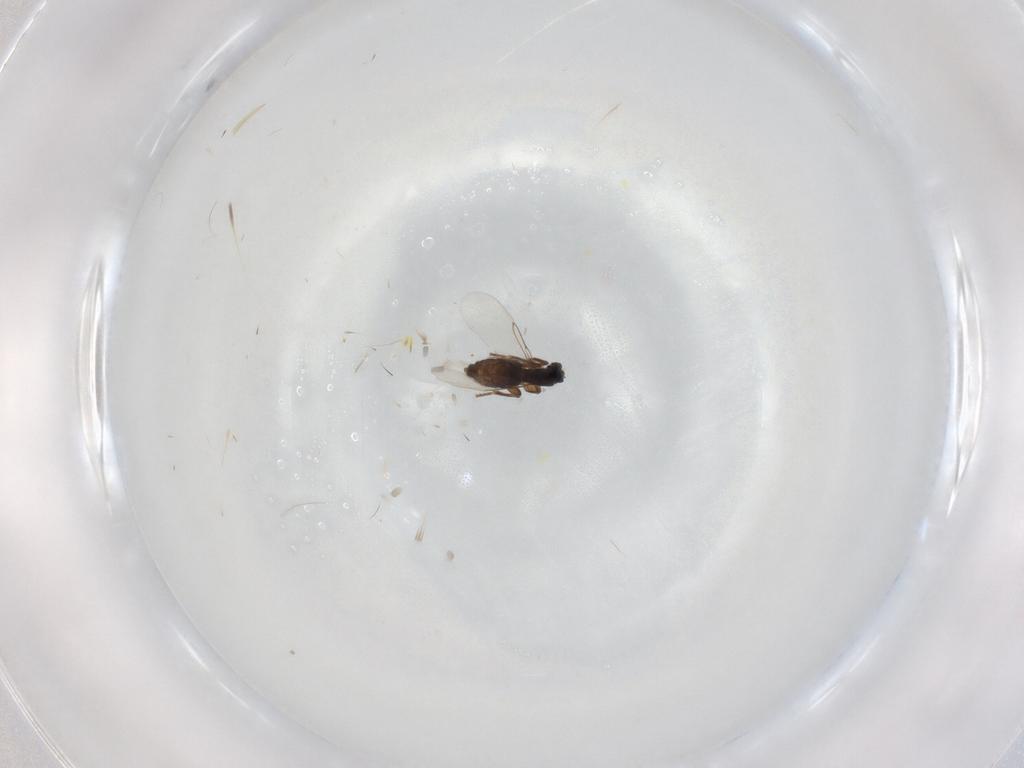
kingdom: Animalia
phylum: Arthropoda
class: Insecta
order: Diptera
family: Phoridae
